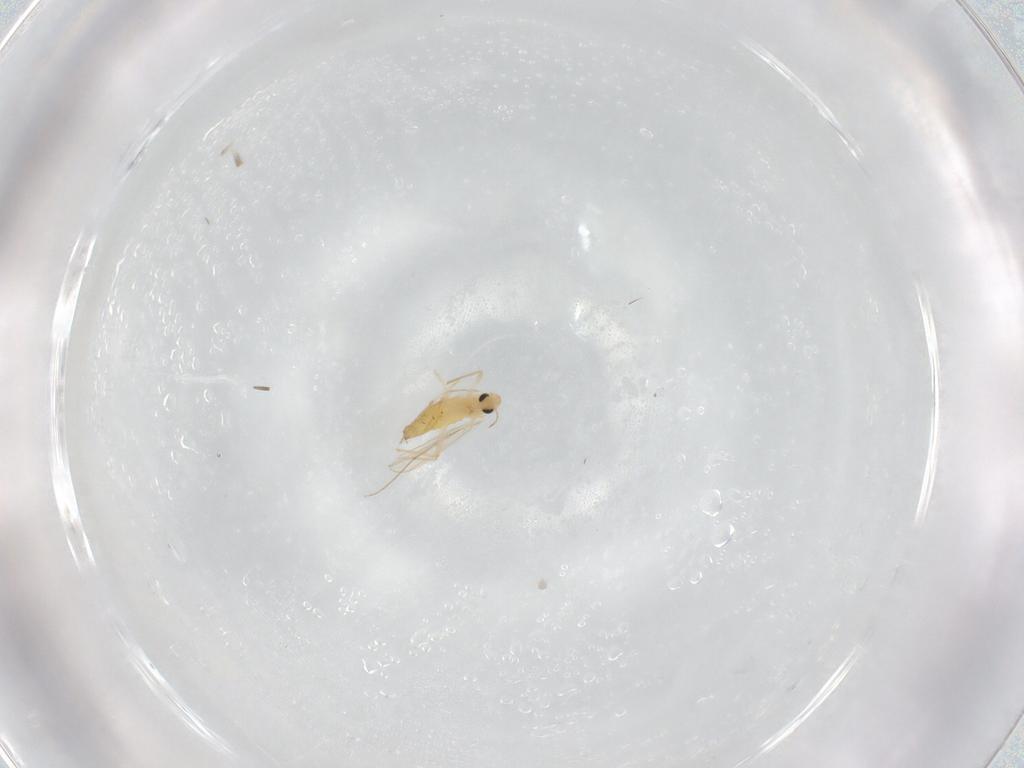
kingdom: Animalia
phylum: Arthropoda
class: Insecta
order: Diptera
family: Chironomidae
